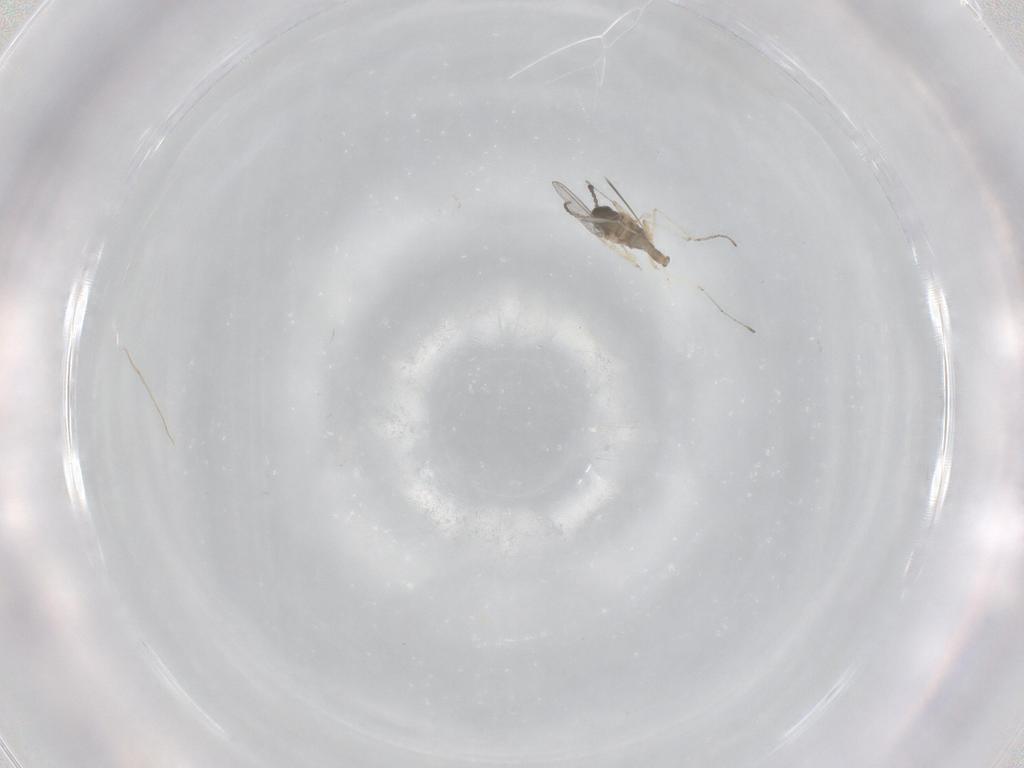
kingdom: Animalia
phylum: Arthropoda
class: Insecta
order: Diptera
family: Cecidomyiidae
